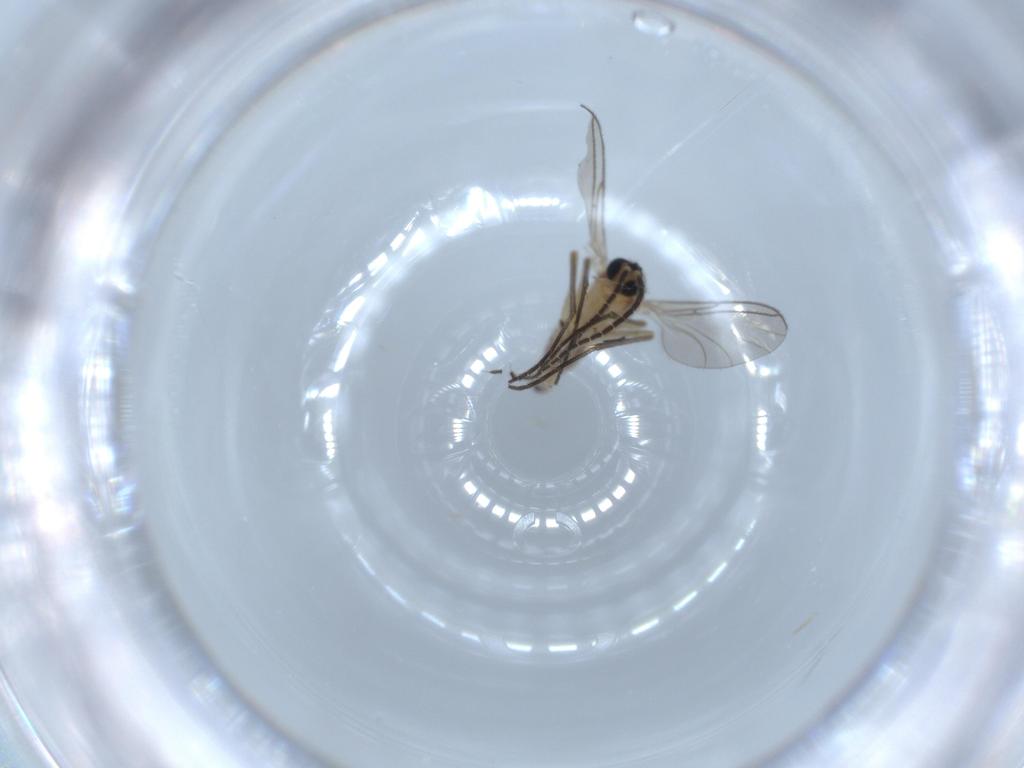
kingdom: Animalia
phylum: Arthropoda
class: Insecta
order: Diptera
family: Sciaridae
